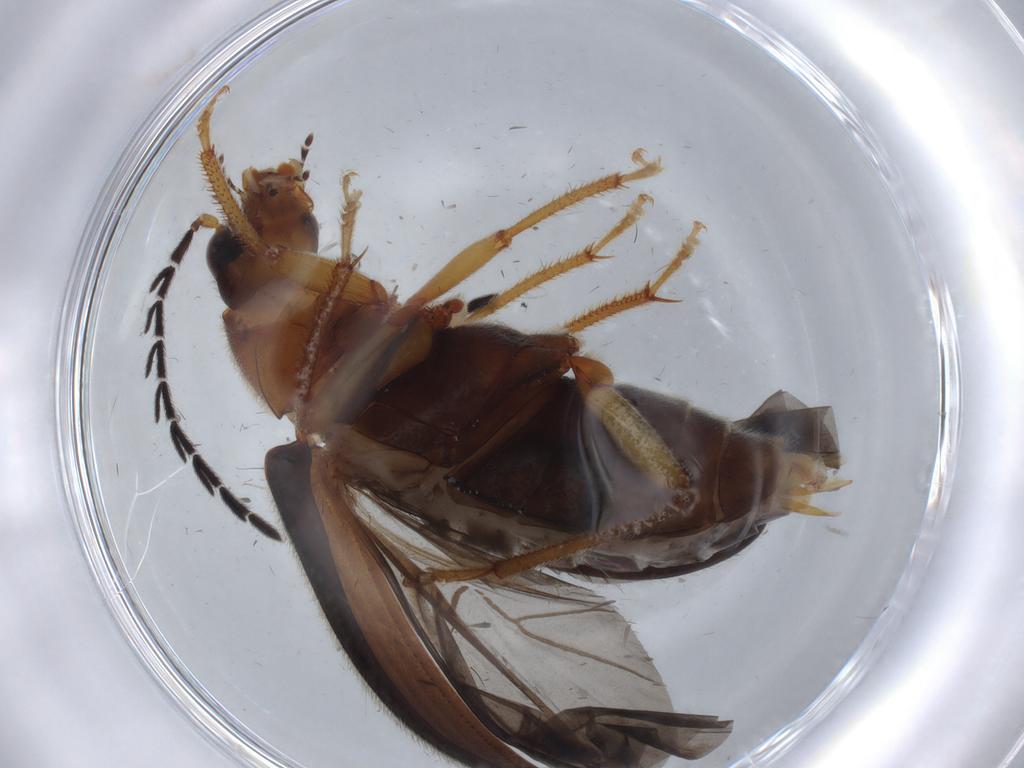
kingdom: Animalia
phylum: Arthropoda
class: Insecta
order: Coleoptera
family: Ptilodactylidae
